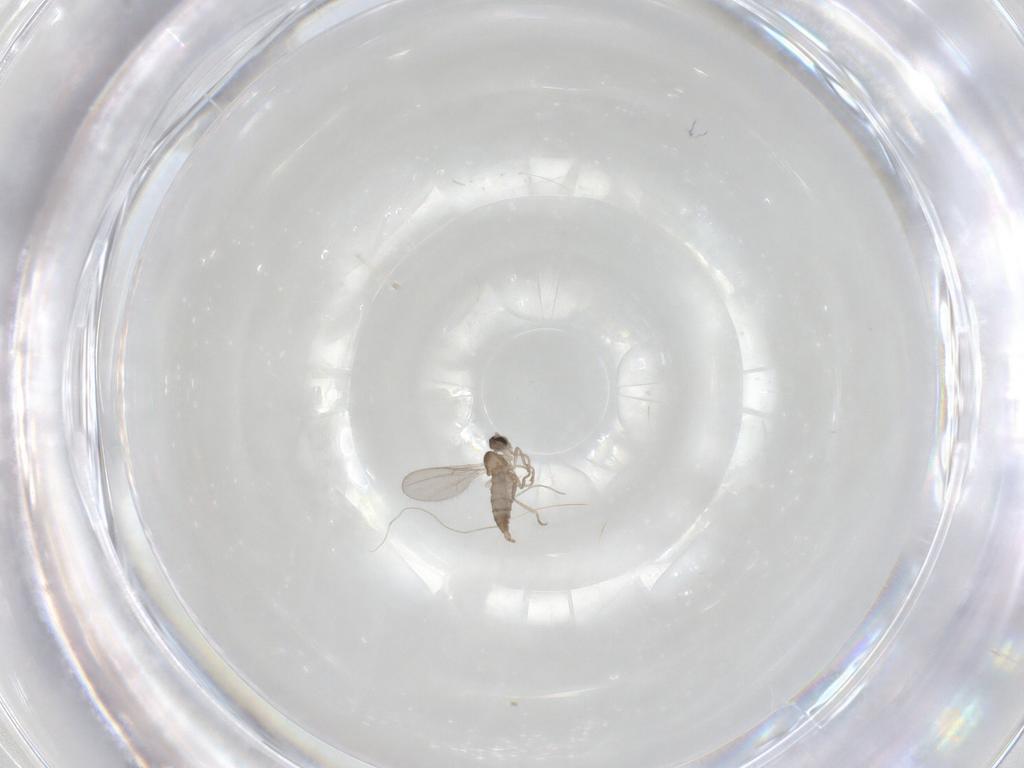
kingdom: Animalia
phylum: Arthropoda
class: Insecta
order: Diptera
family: Cecidomyiidae
